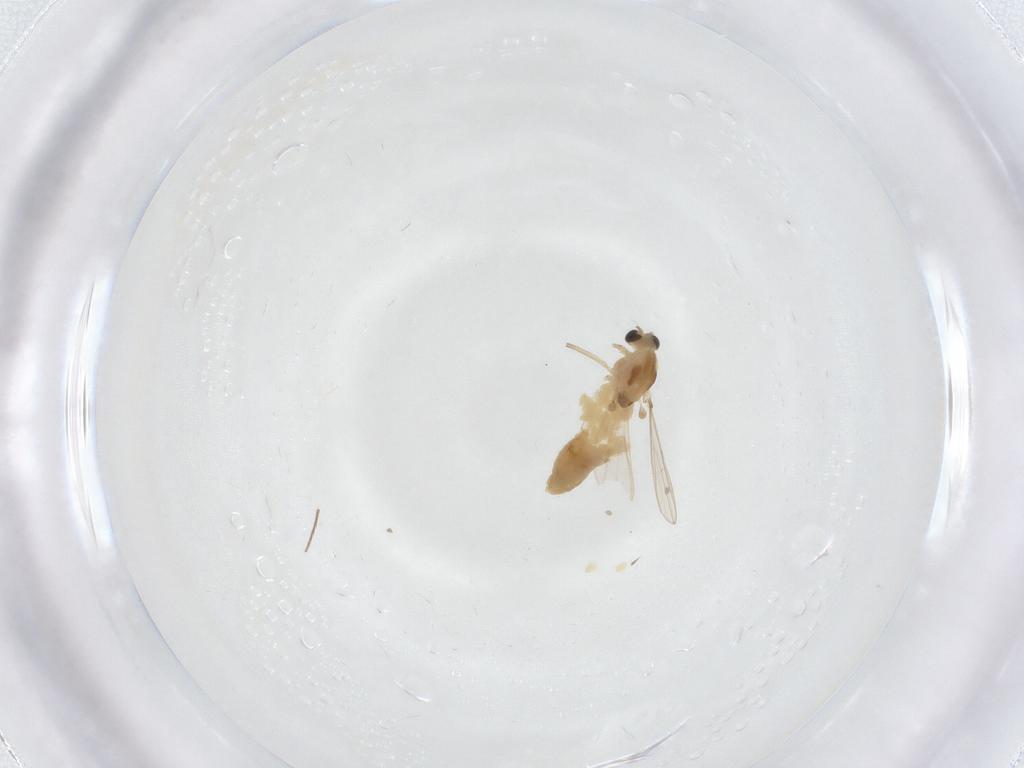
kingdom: Animalia
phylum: Arthropoda
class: Insecta
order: Diptera
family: Chironomidae
